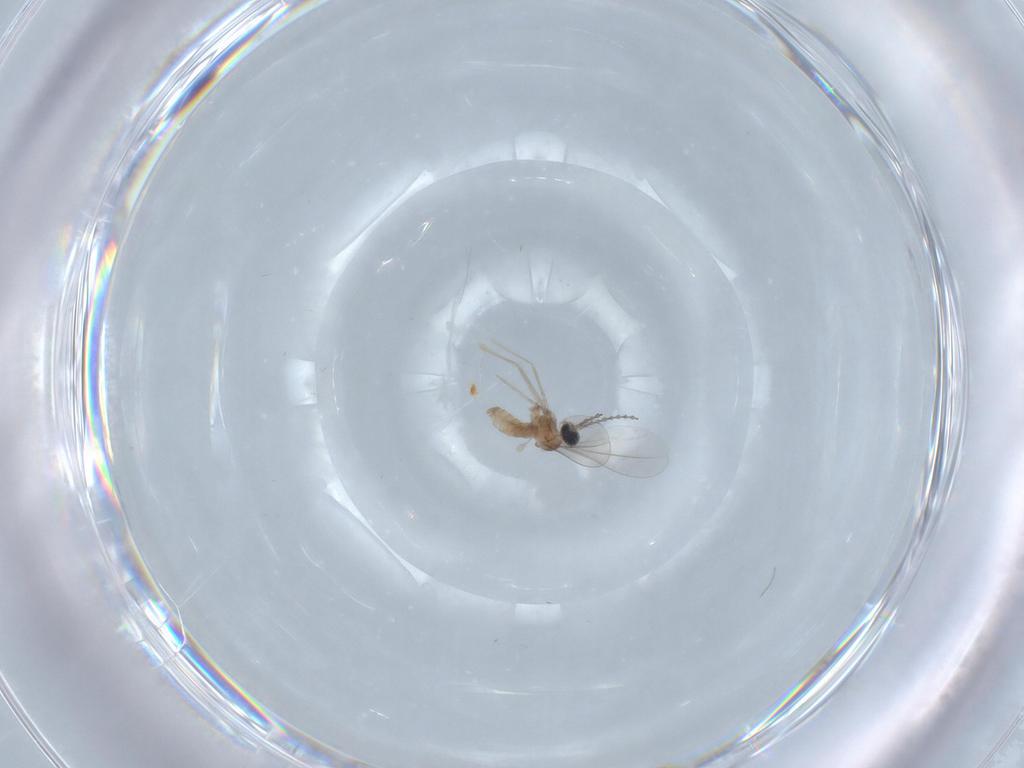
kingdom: Animalia
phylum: Arthropoda
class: Insecta
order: Diptera
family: Cecidomyiidae
